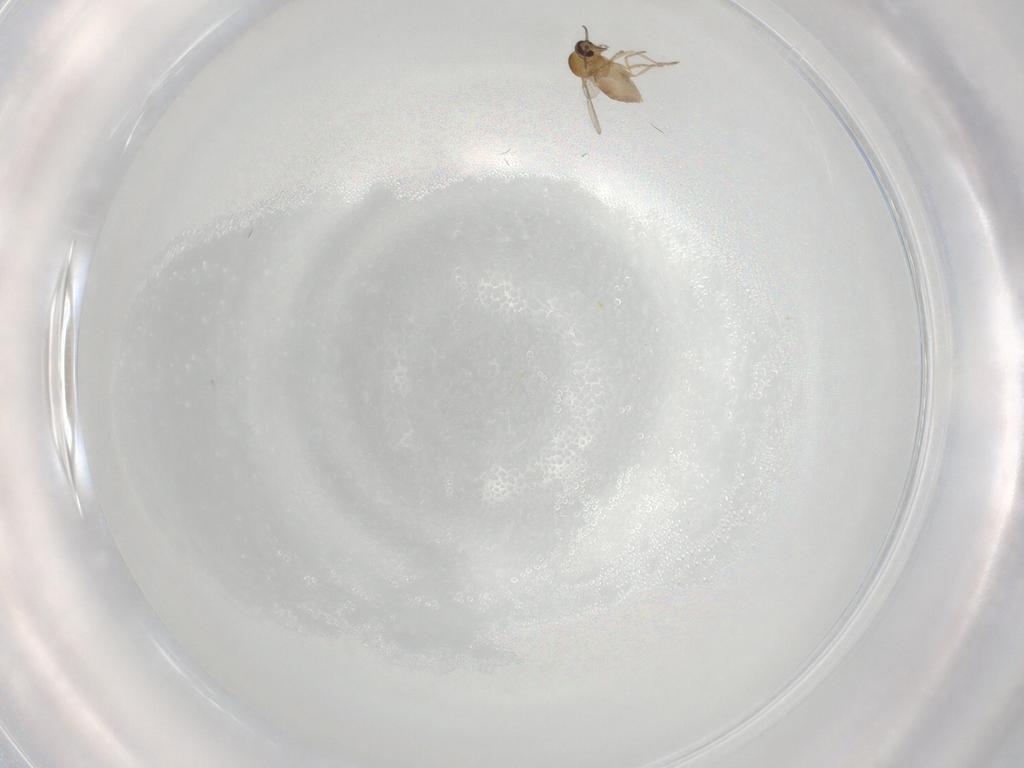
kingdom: Animalia
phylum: Arthropoda
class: Insecta
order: Diptera
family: Ceratopogonidae
